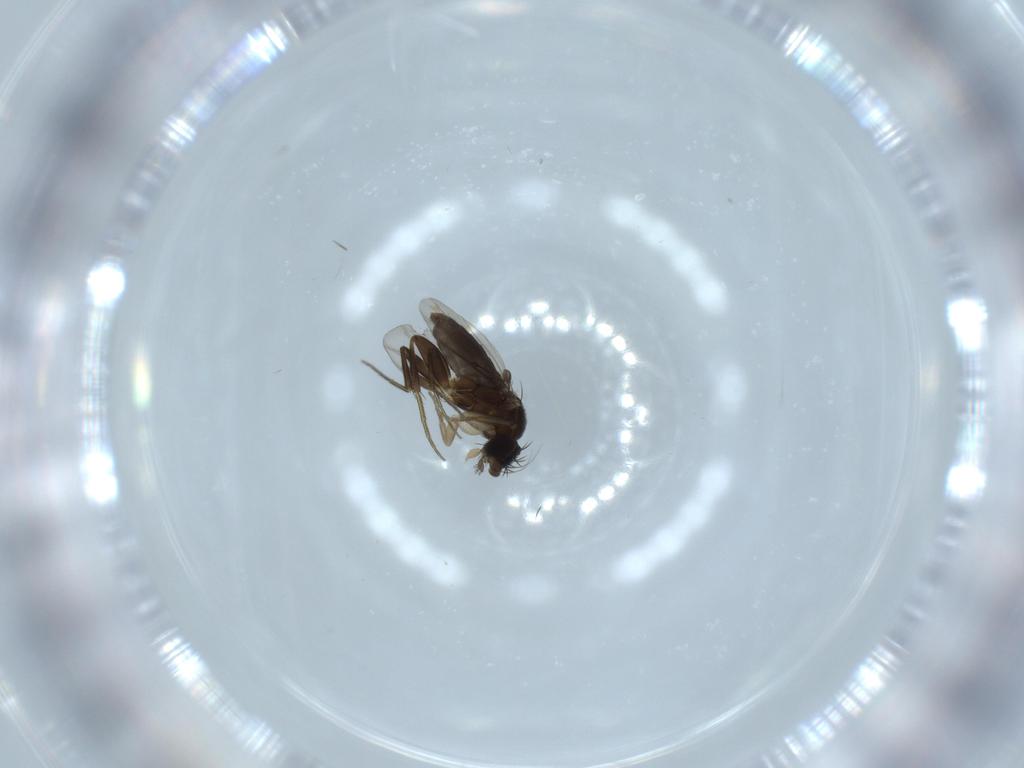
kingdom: Animalia
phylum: Arthropoda
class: Insecta
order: Diptera
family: Phoridae
